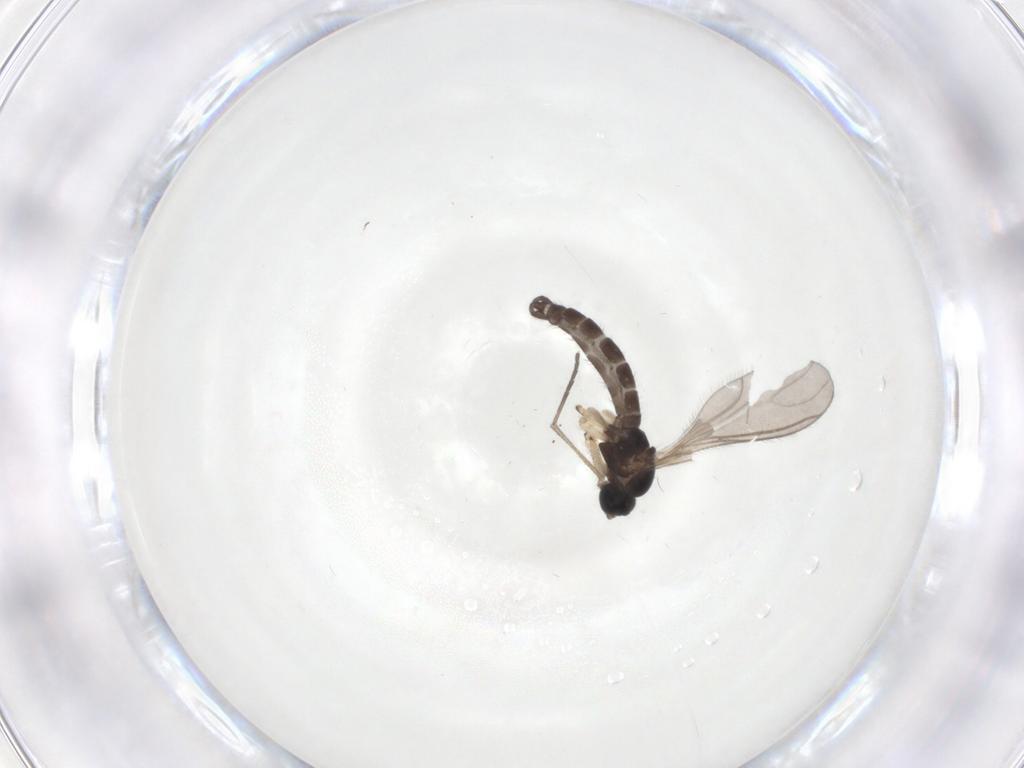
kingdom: Animalia
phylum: Arthropoda
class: Insecta
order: Diptera
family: Sciaridae
